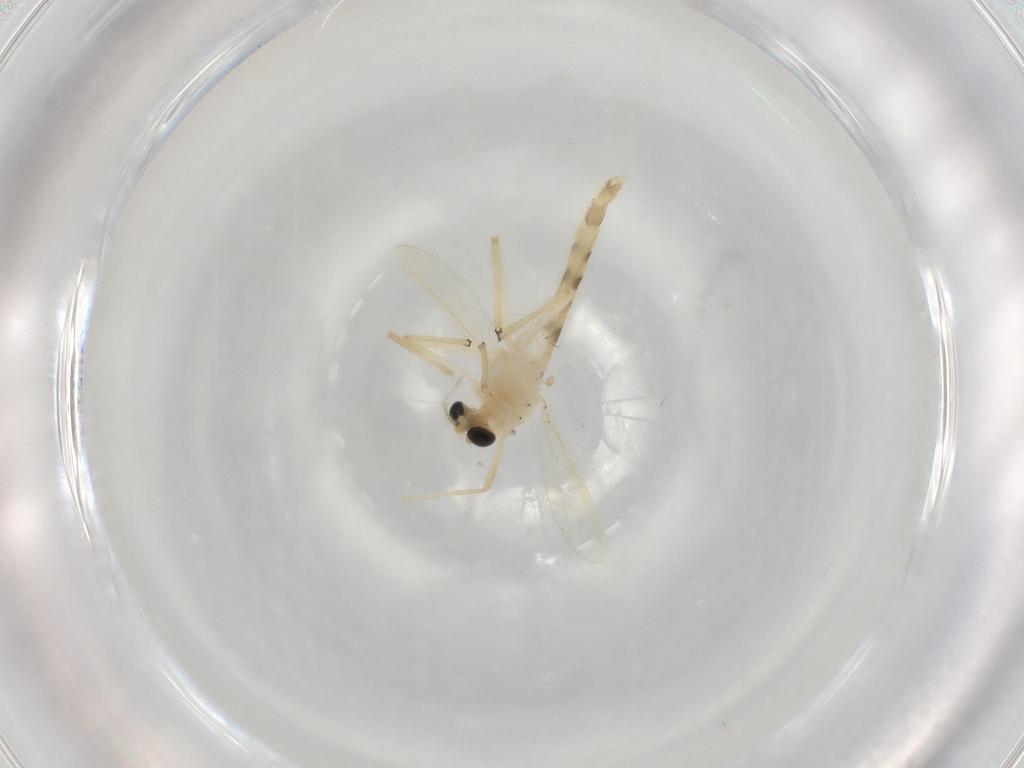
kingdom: Animalia
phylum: Arthropoda
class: Insecta
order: Diptera
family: Chironomidae
